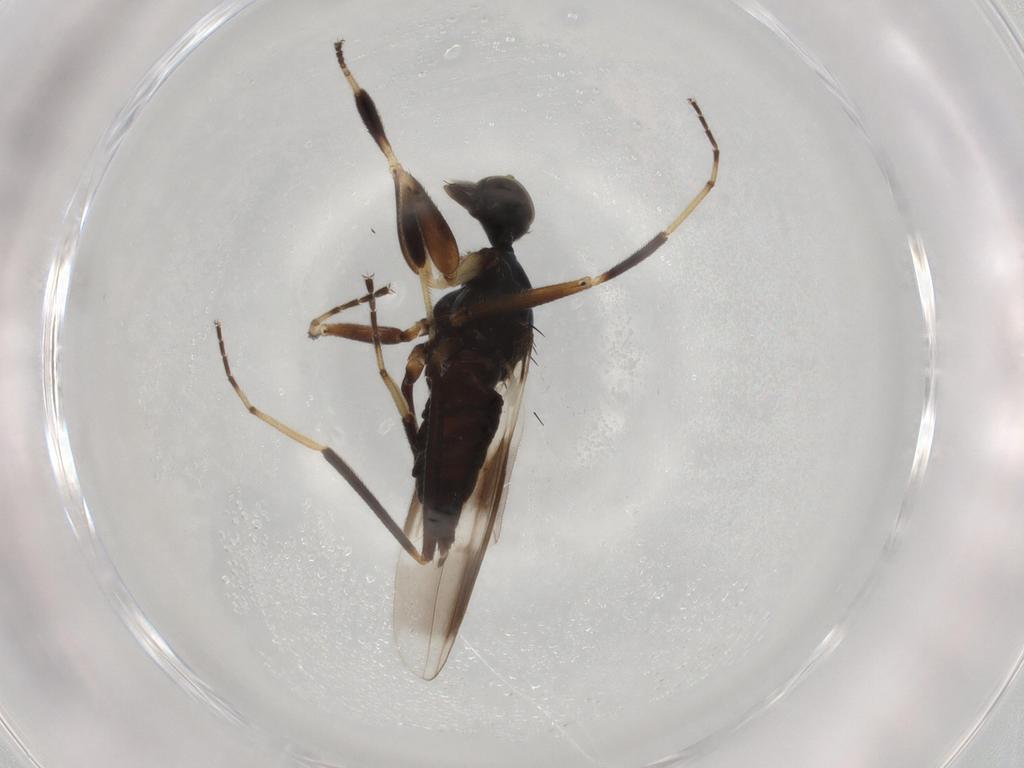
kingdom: Animalia
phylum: Arthropoda
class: Insecta
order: Diptera
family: Hybotidae
